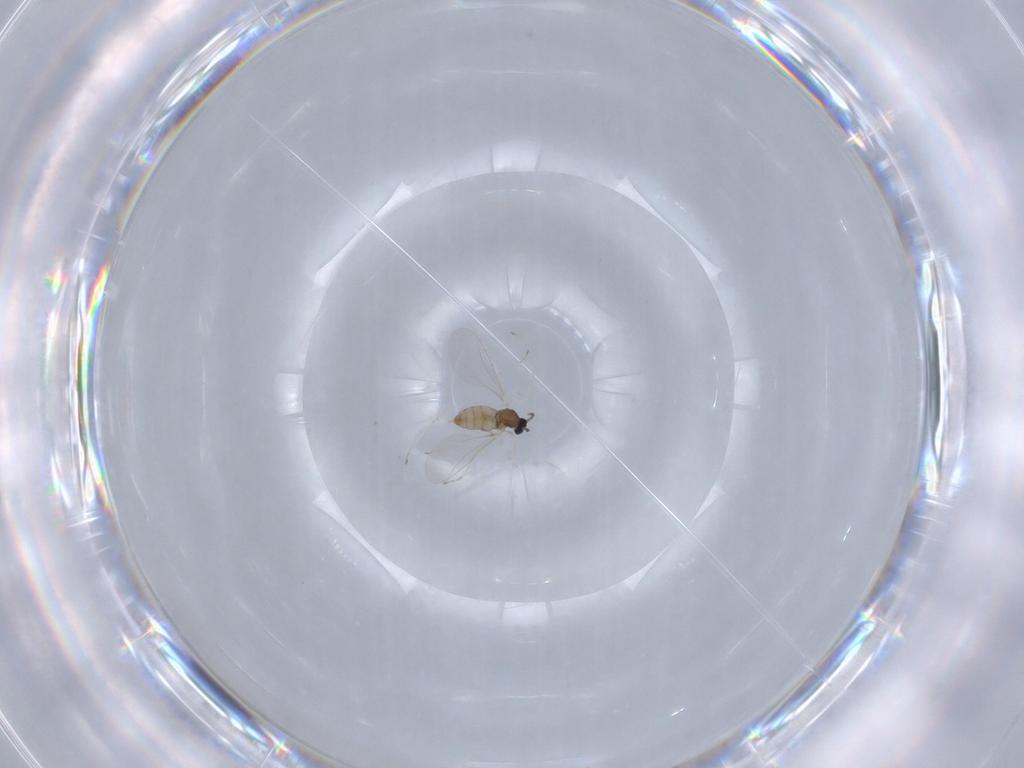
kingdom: Animalia
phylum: Arthropoda
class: Insecta
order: Diptera
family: Cecidomyiidae
